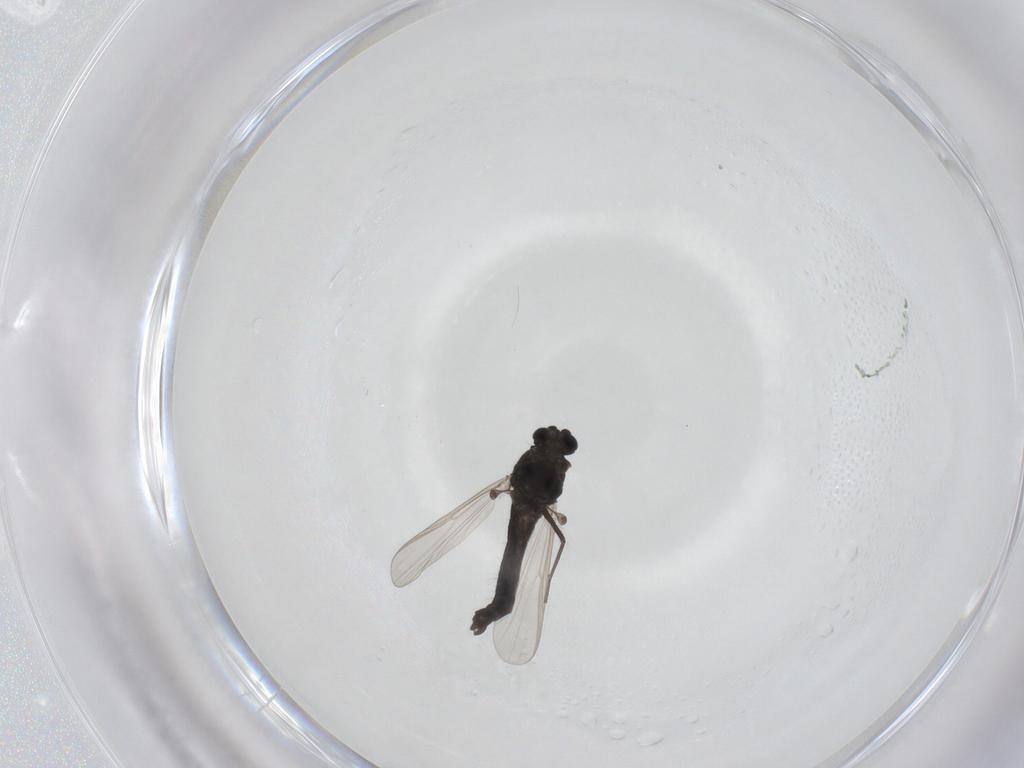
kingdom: Animalia
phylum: Arthropoda
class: Insecta
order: Diptera
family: Chironomidae
